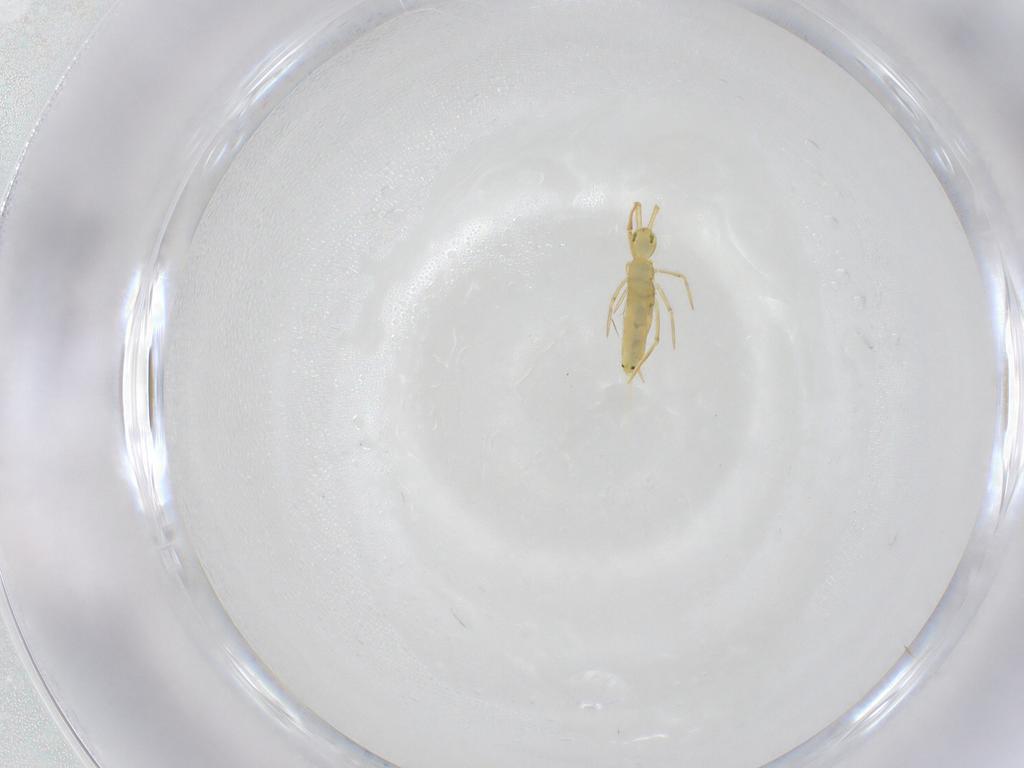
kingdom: Animalia
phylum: Arthropoda
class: Collembola
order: Entomobryomorpha
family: Entomobryidae
